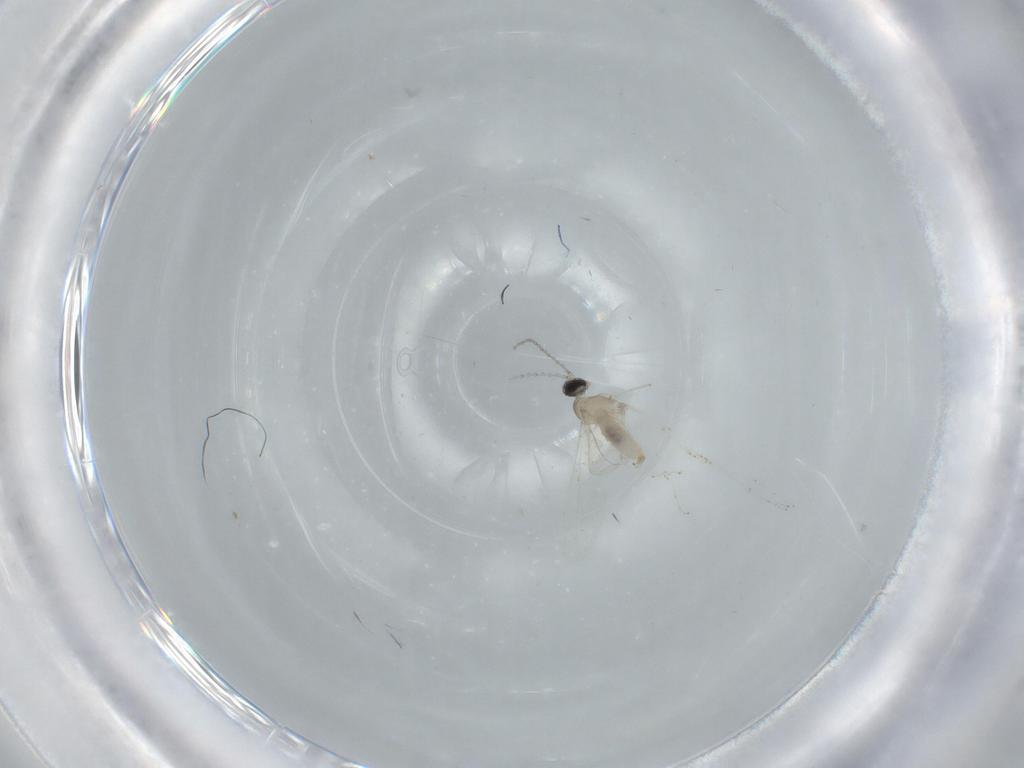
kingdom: Animalia
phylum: Arthropoda
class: Insecta
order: Diptera
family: Cecidomyiidae
